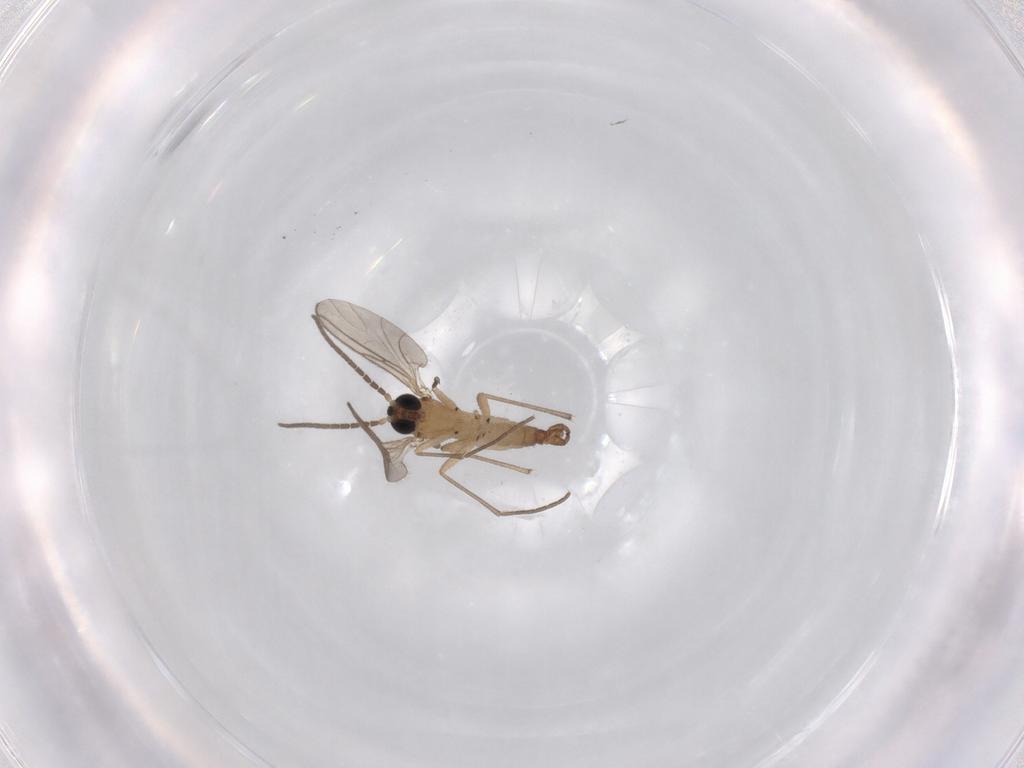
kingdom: Animalia
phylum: Arthropoda
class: Insecta
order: Diptera
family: Sciaridae
